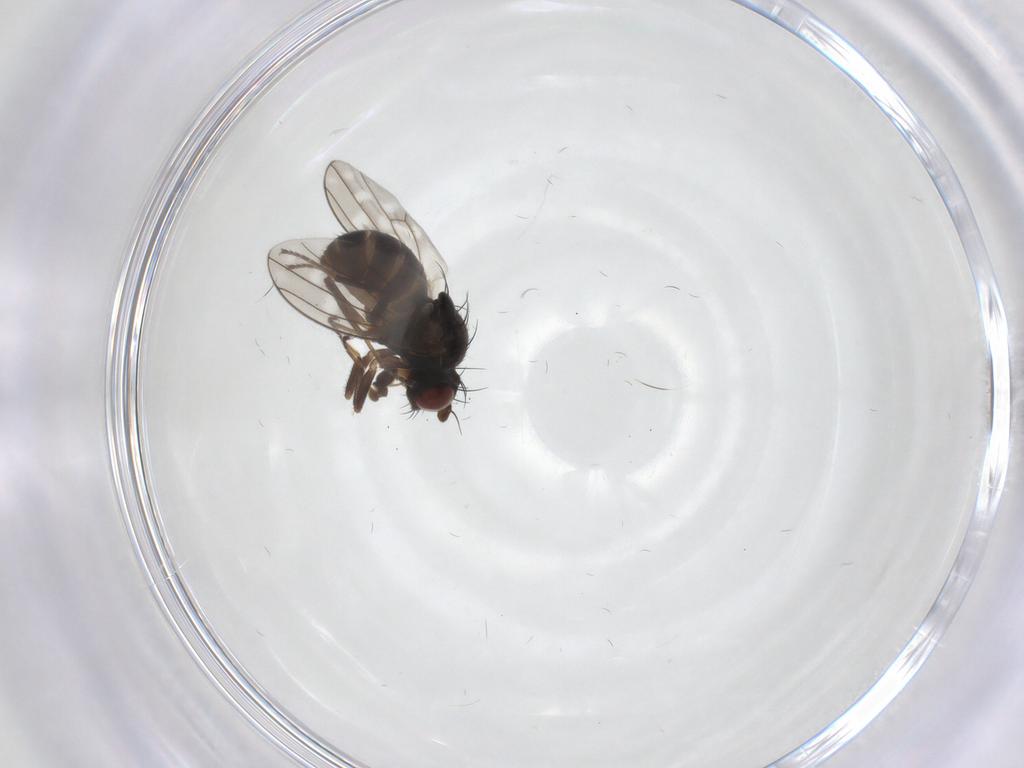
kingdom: Animalia
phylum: Arthropoda
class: Insecta
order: Diptera
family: Ephydridae
